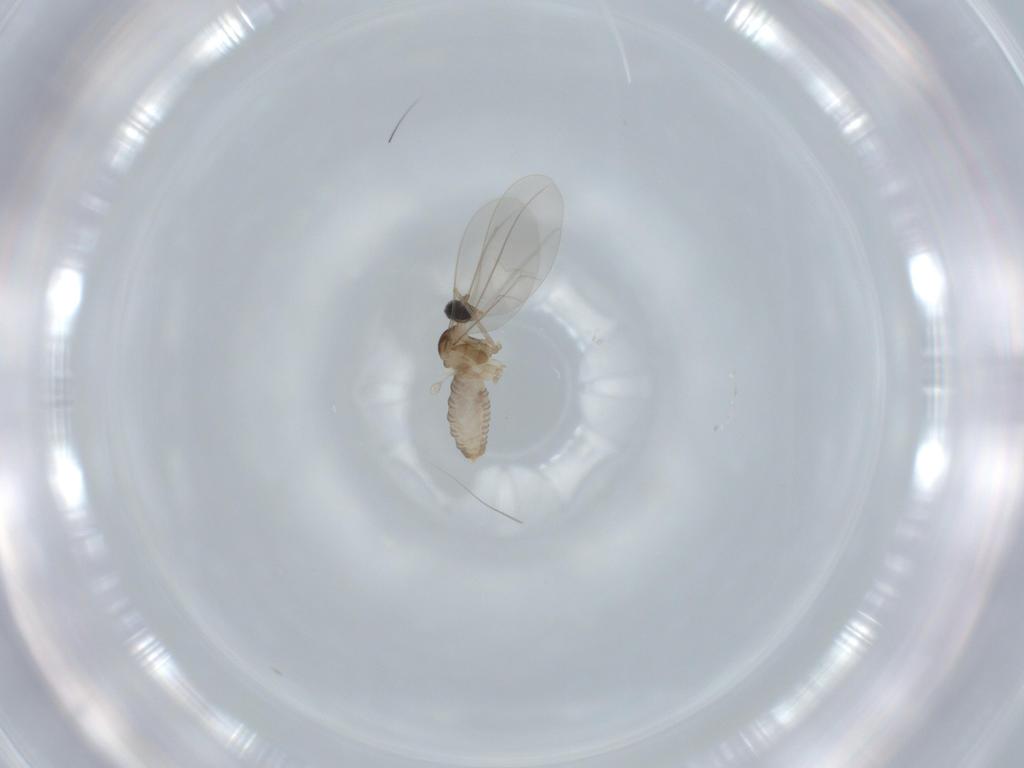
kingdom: Animalia
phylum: Arthropoda
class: Insecta
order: Diptera
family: Cecidomyiidae
